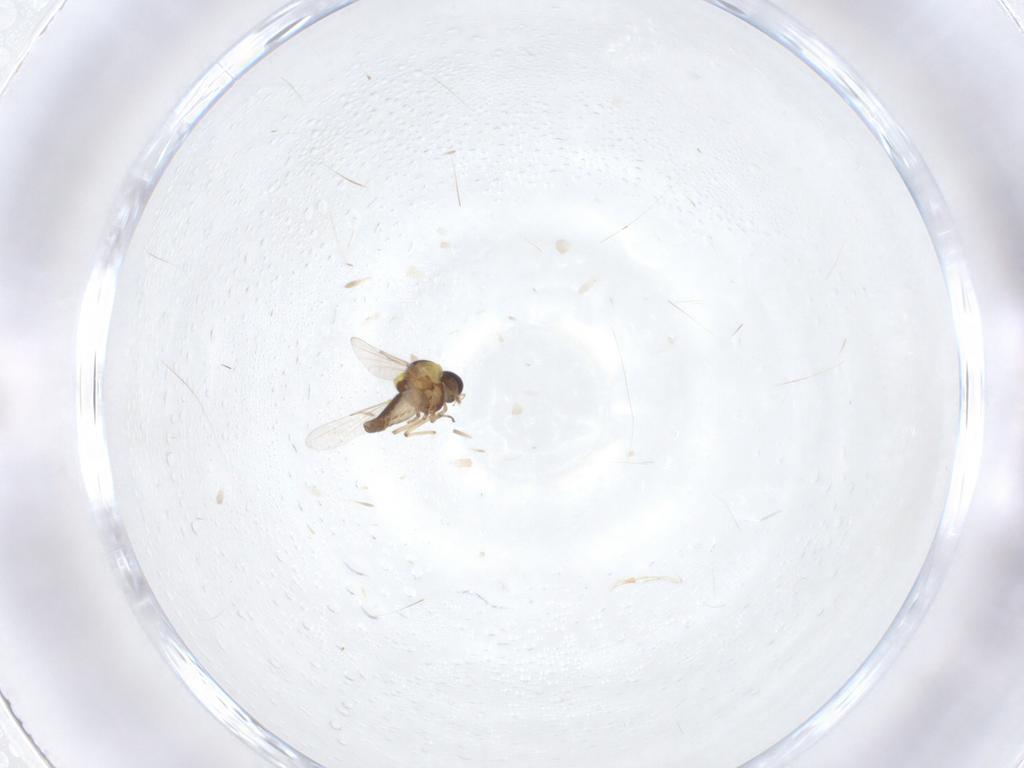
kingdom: Animalia
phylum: Arthropoda
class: Insecta
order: Diptera
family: Ceratopogonidae
